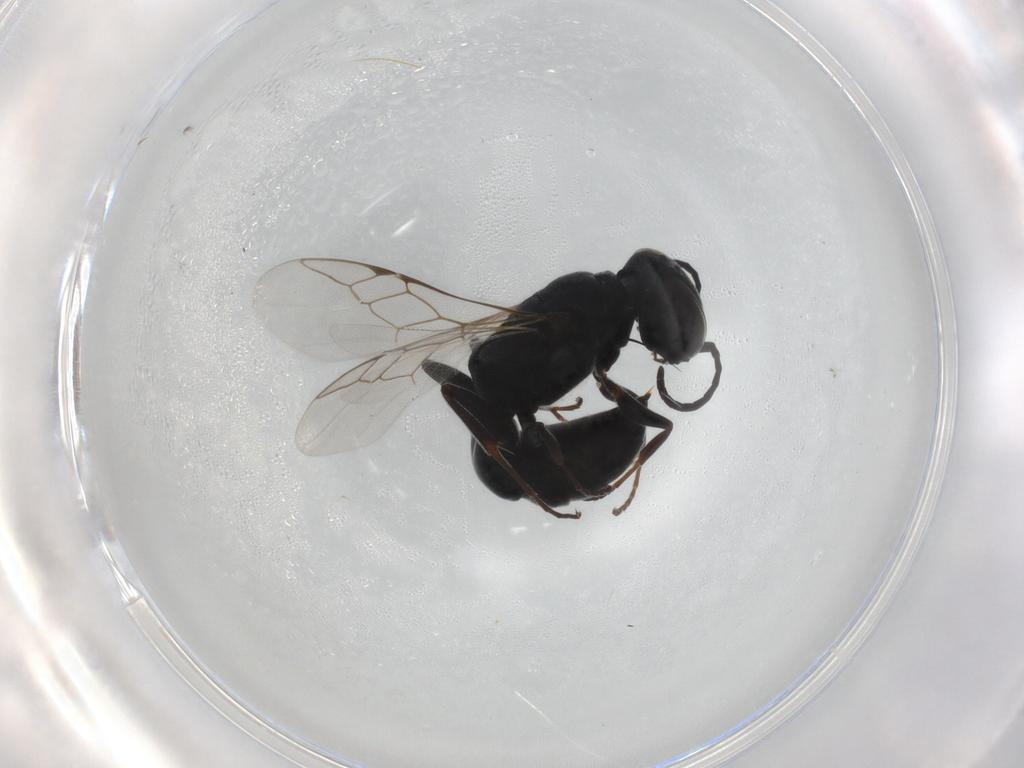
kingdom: Animalia
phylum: Arthropoda
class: Insecta
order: Hymenoptera
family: Crabronidae
